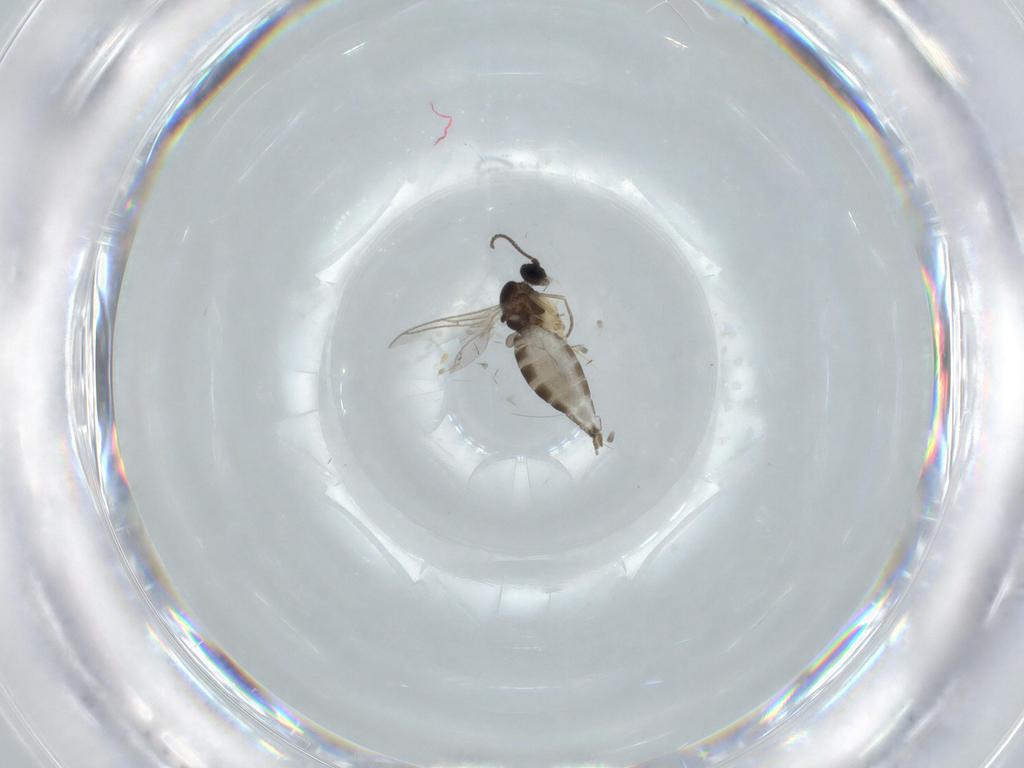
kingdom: Animalia
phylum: Arthropoda
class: Insecta
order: Diptera
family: Sciaridae
